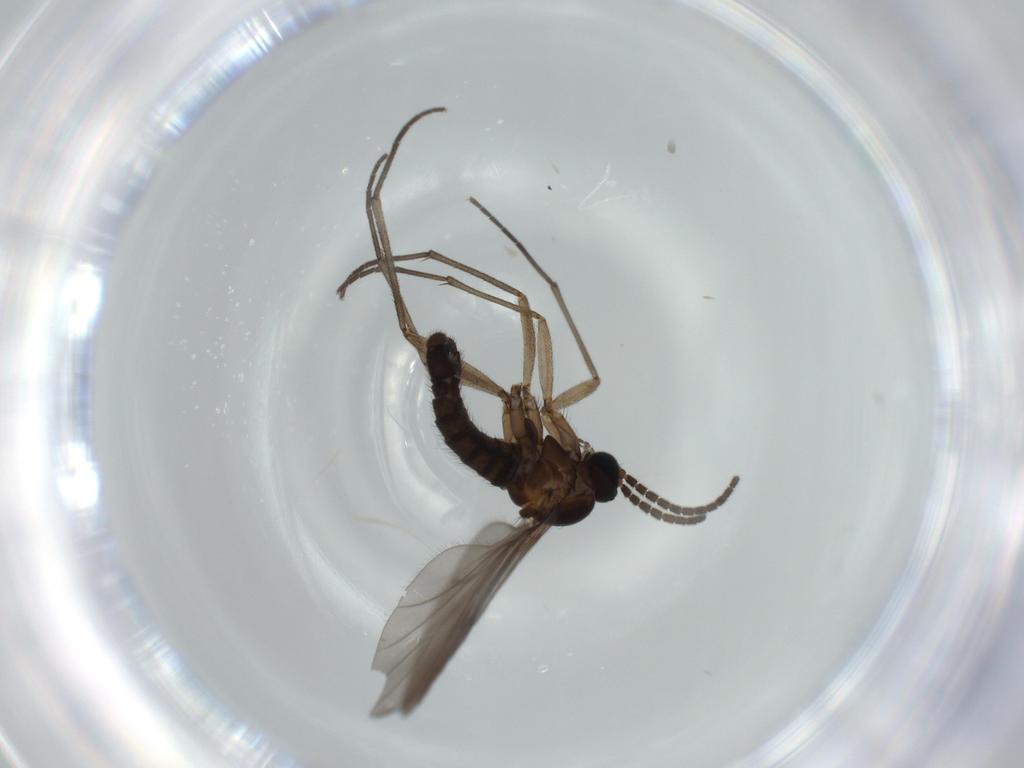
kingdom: Animalia
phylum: Arthropoda
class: Insecta
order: Diptera
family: Sciaridae
